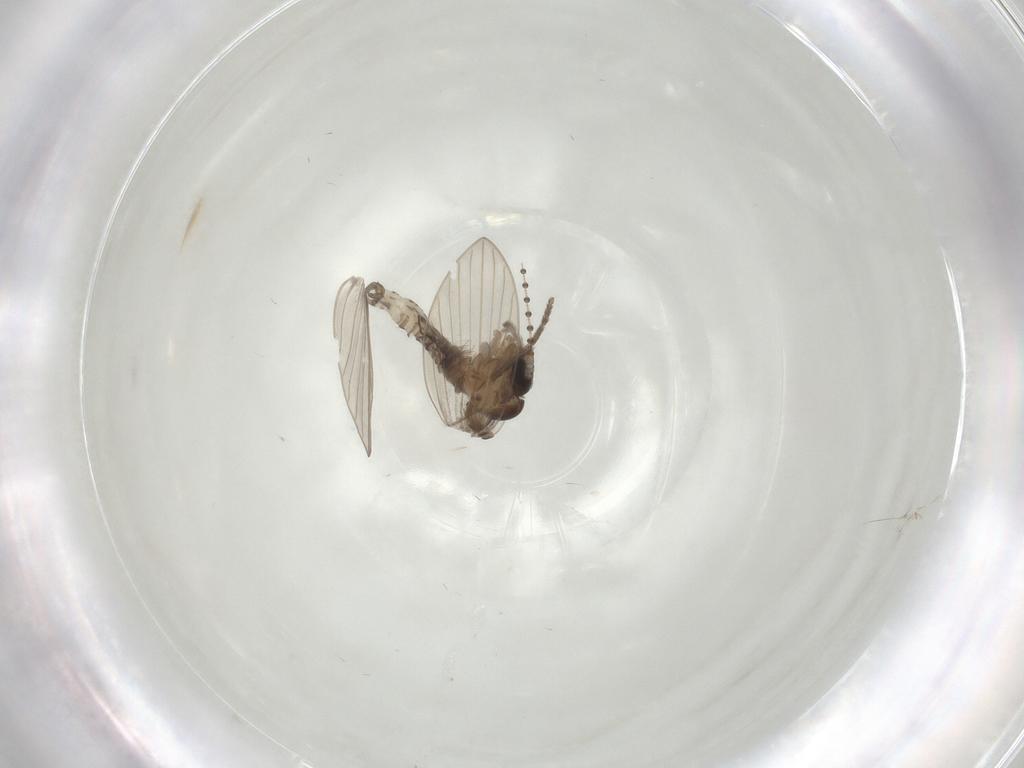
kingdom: Animalia
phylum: Arthropoda
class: Insecta
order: Diptera
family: Psychodidae
